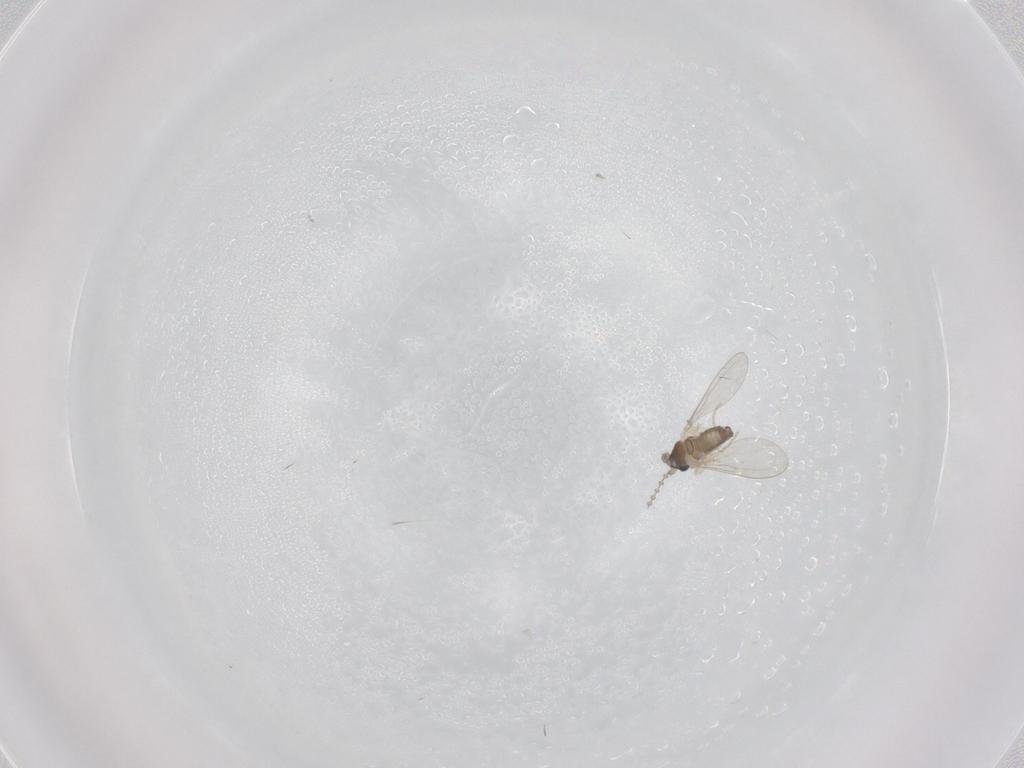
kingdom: Animalia
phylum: Arthropoda
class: Insecta
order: Diptera
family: Cecidomyiidae
